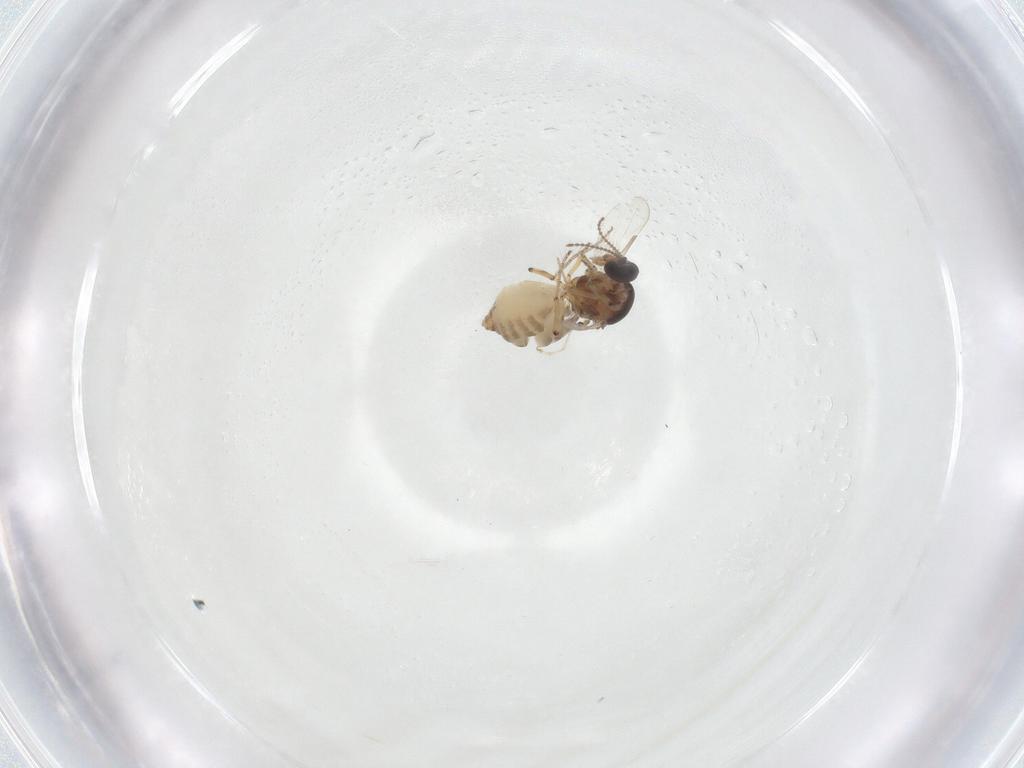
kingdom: Animalia
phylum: Arthropoda
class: Insecta
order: Diptera
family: Ceratopogonidae
